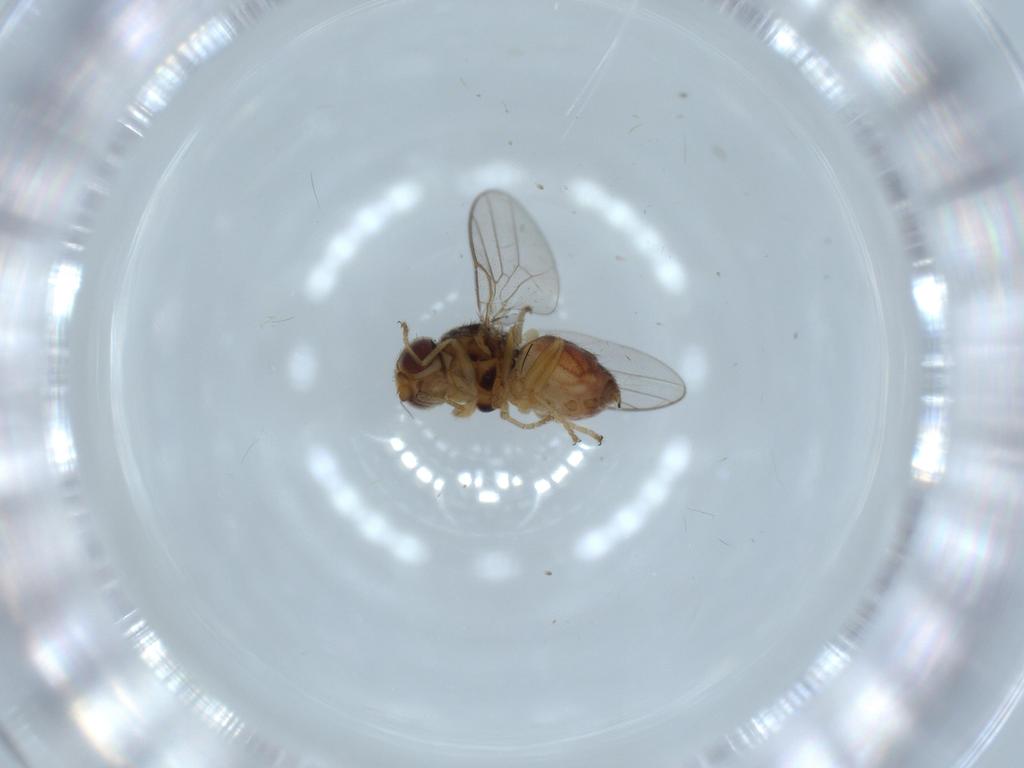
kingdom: Animalia
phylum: Arthropoda
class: Insecta
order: Diptera
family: Chloropidae
